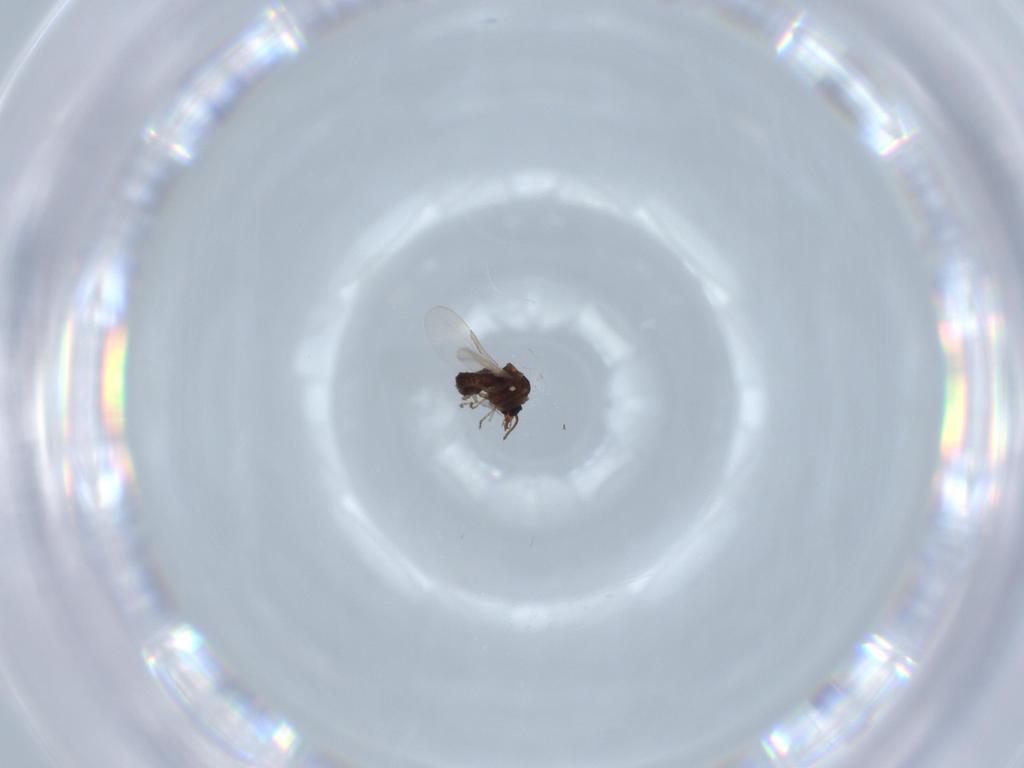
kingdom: Animalia
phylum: Arthropoda
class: Insecta
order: Diptera
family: Ceratopogonidae
